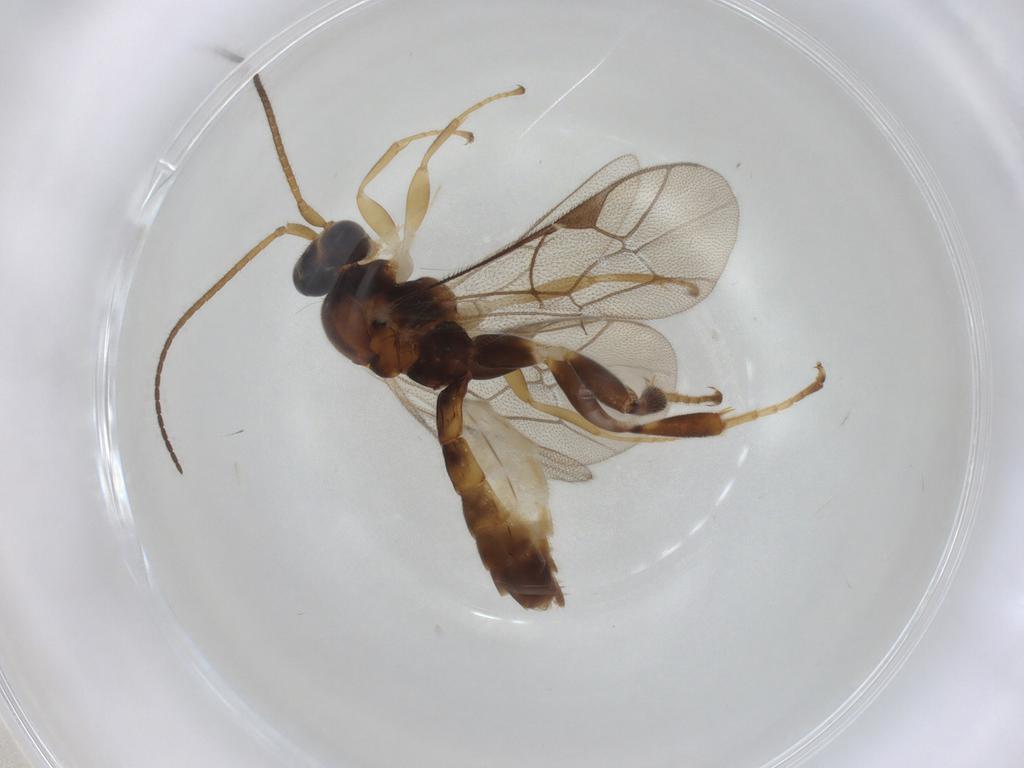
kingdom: Animalia
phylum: Arthropoda
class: Insecta
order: Hymenoptera
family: Ichneumonidae
